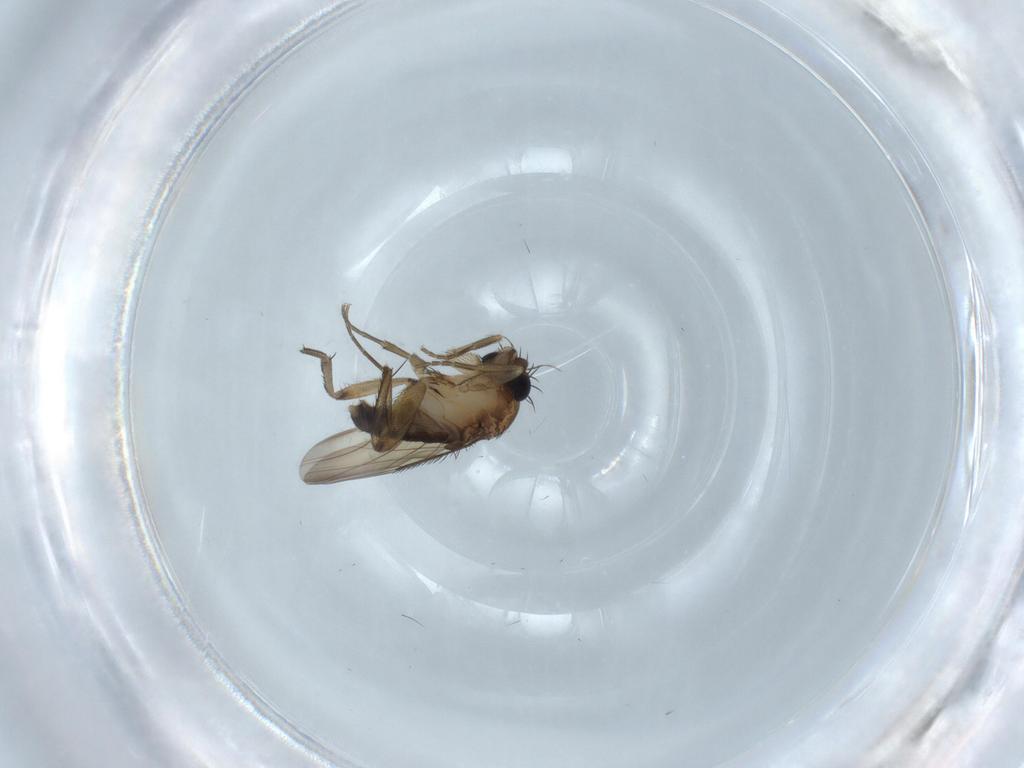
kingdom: Animalia
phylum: Arthropoda
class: Insecta
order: Diptera
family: Phoridae
